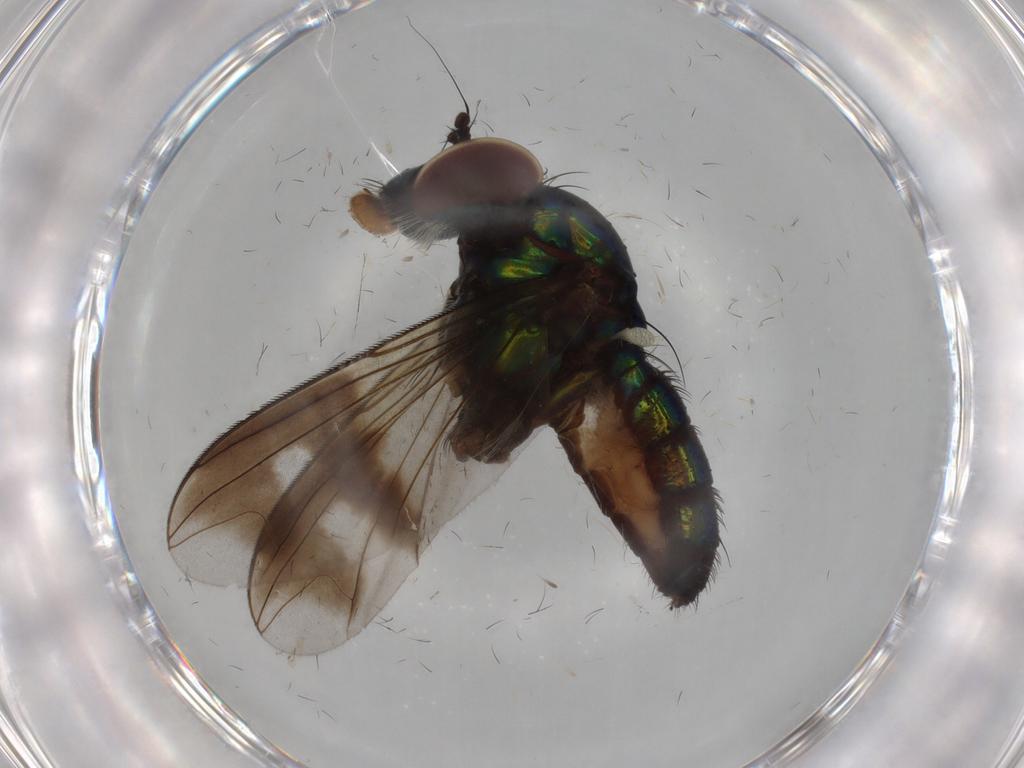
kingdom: Animalia
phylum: Arthropoda
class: Insecta
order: Diptera
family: Dolichopodidae
